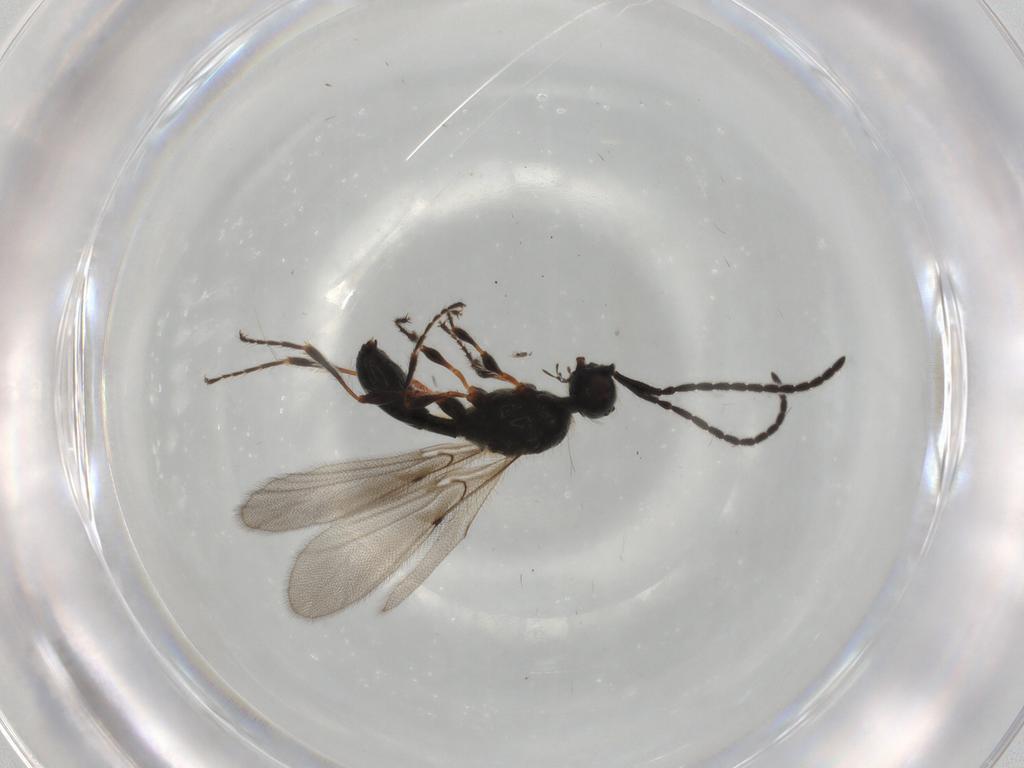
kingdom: Animalia
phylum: Arthropoda
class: Insecta
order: Hymenoptera
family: Diapriidae
